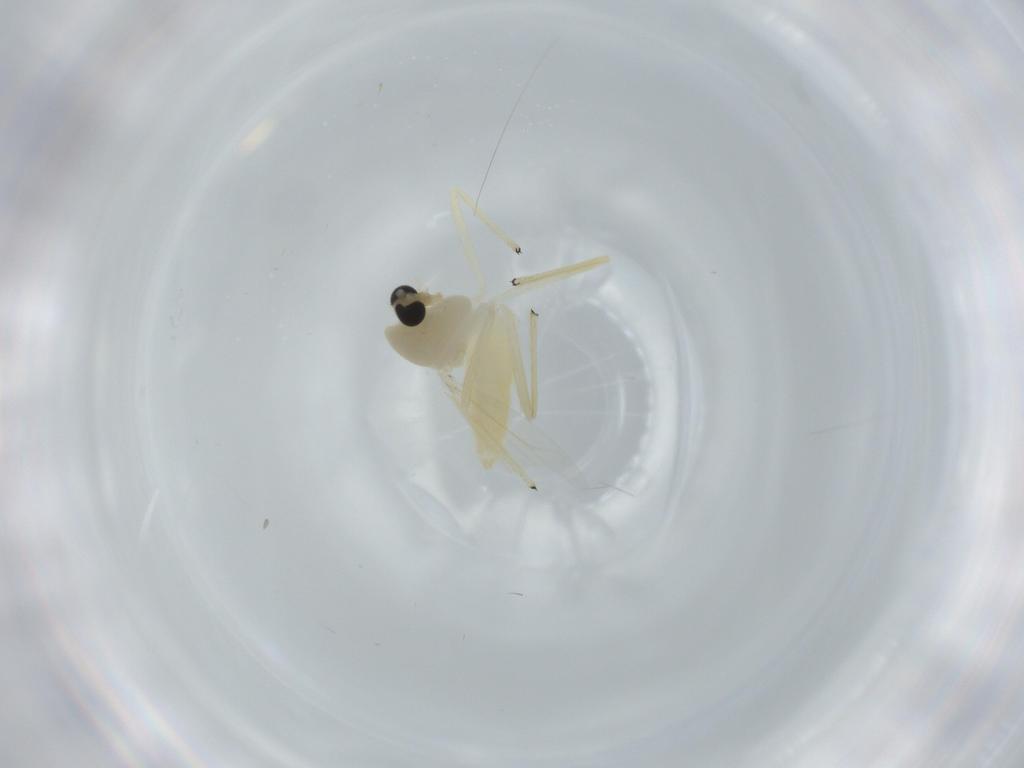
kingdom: Animalia
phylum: Arthropoda
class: Insecta
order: Diptera
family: Chironomidae
